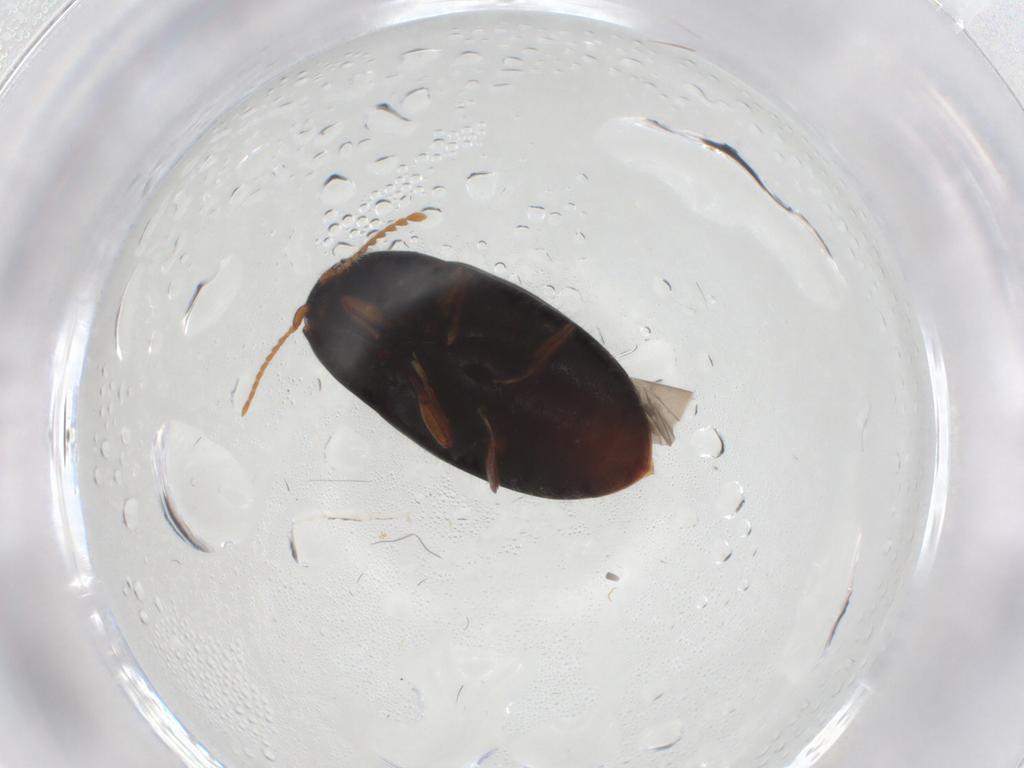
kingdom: Animalia
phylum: Arthropoda
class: Insecta
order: Coleoptera
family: Elateridae
